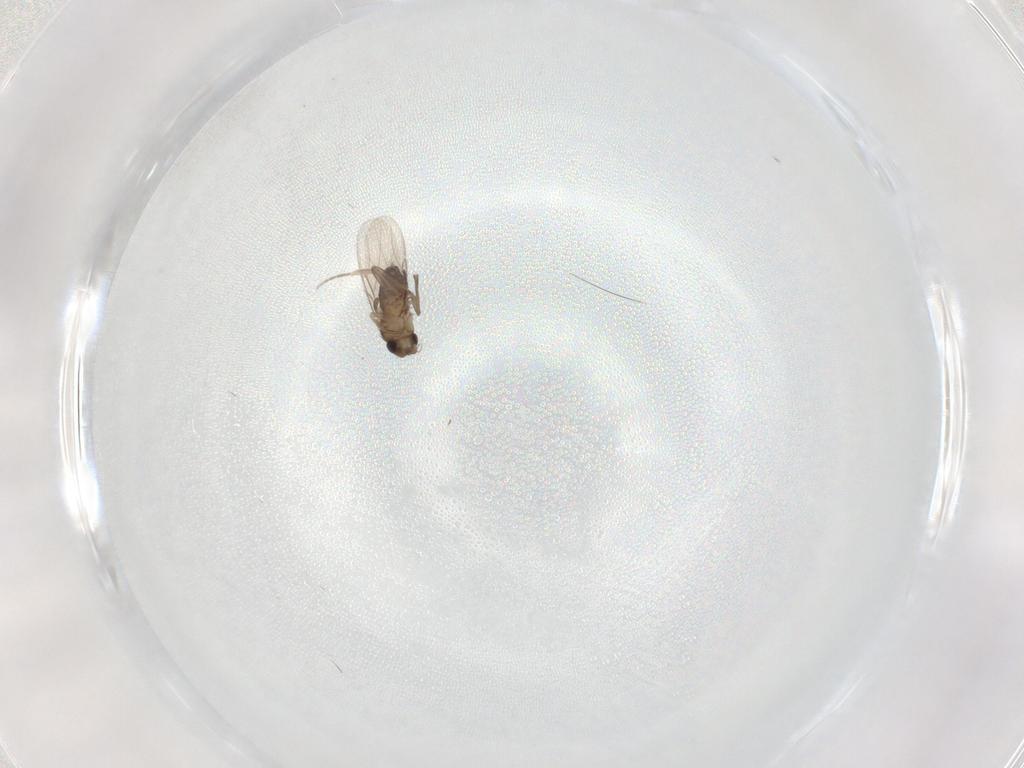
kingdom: Animalia
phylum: Arthropoda
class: Insecta
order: Diptera
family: Phoridae
